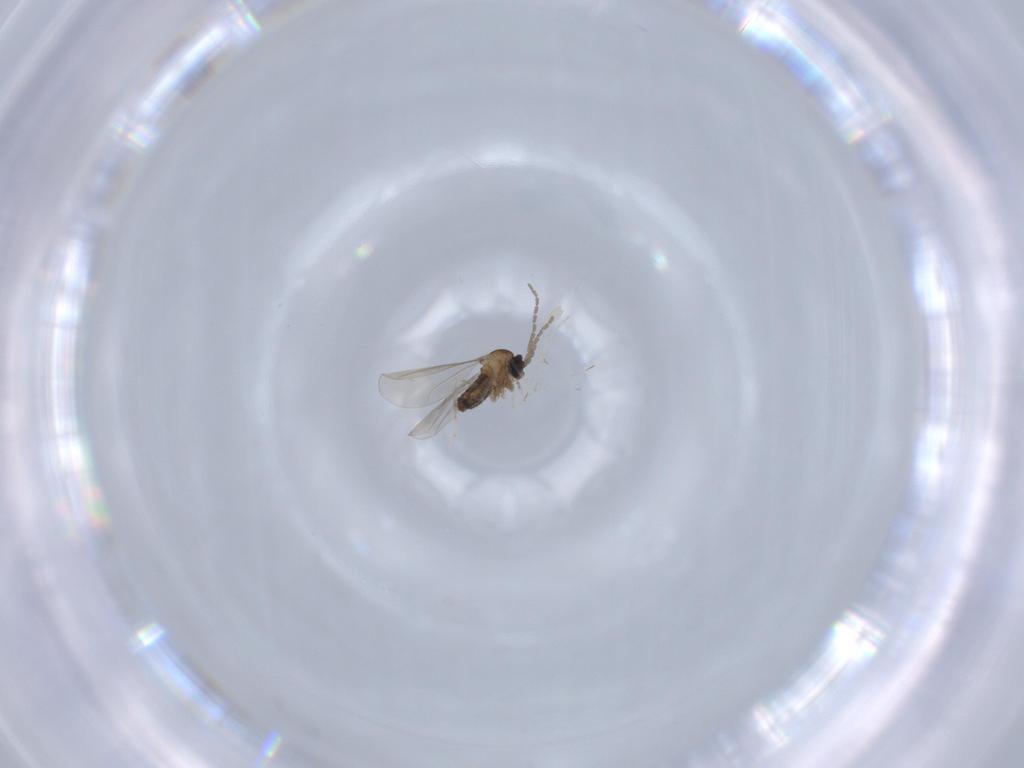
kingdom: Animalia
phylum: Arthropoda
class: Insecta
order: Diptera
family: Cecidomyiidae
